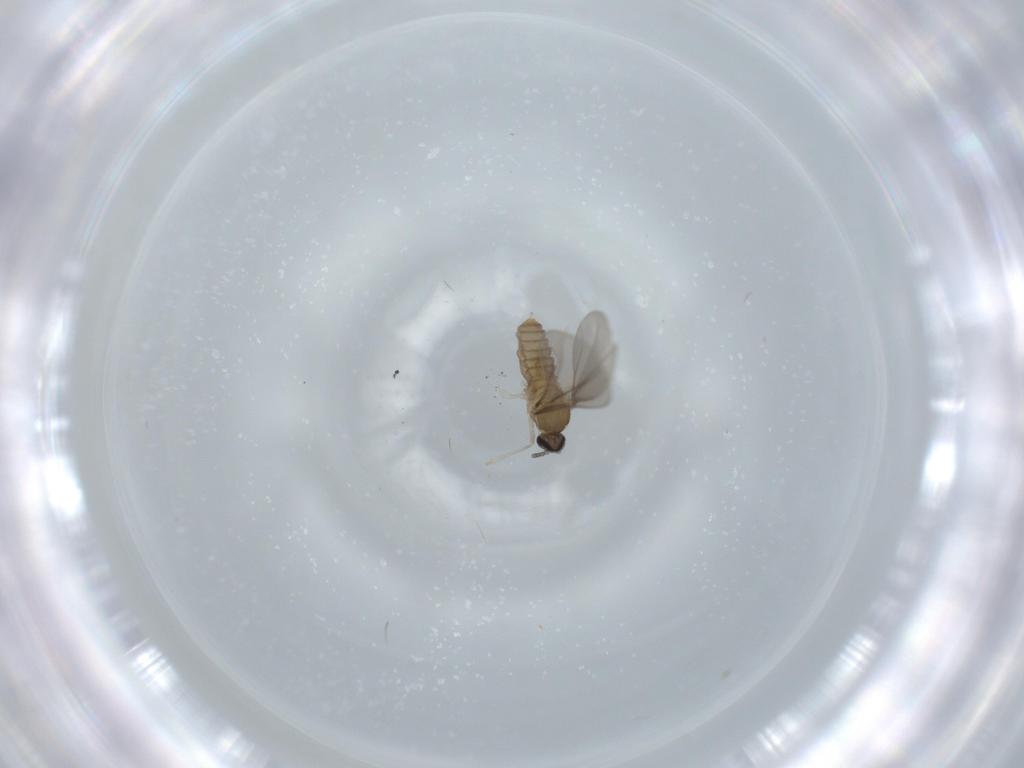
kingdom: Animalia
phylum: Arthropoda
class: Insecta
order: Diptera
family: Cecidomyiidae
